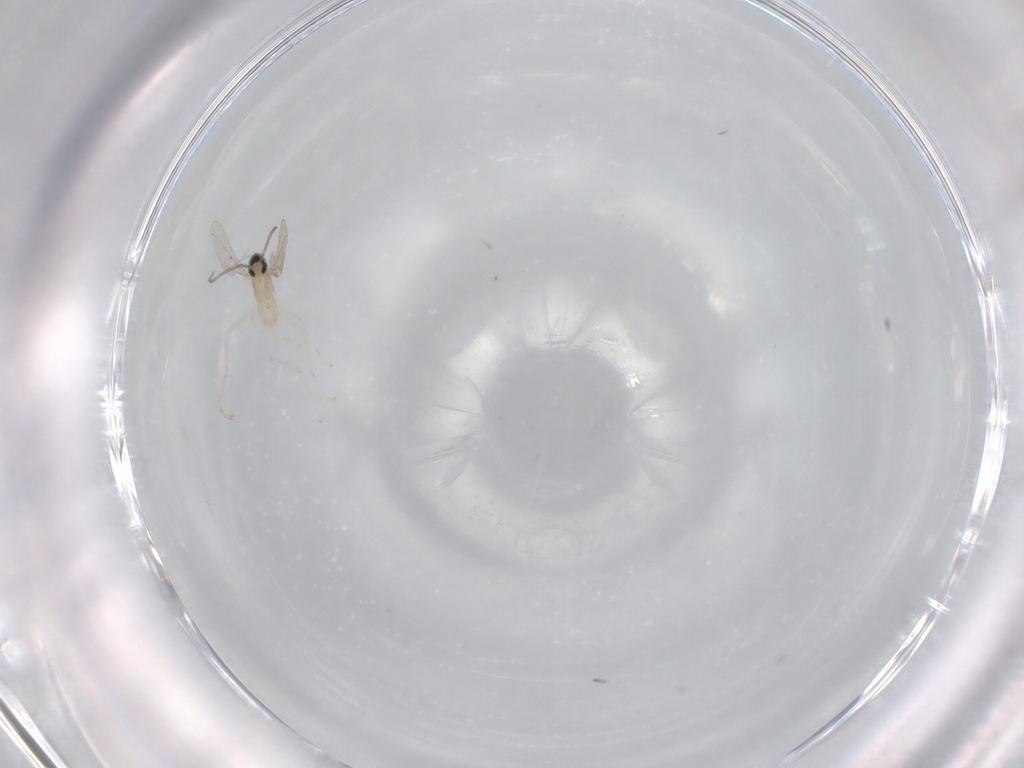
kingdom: Animalia
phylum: Arthropoda
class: Insecta
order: Diptera
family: Cecidomyiidae
